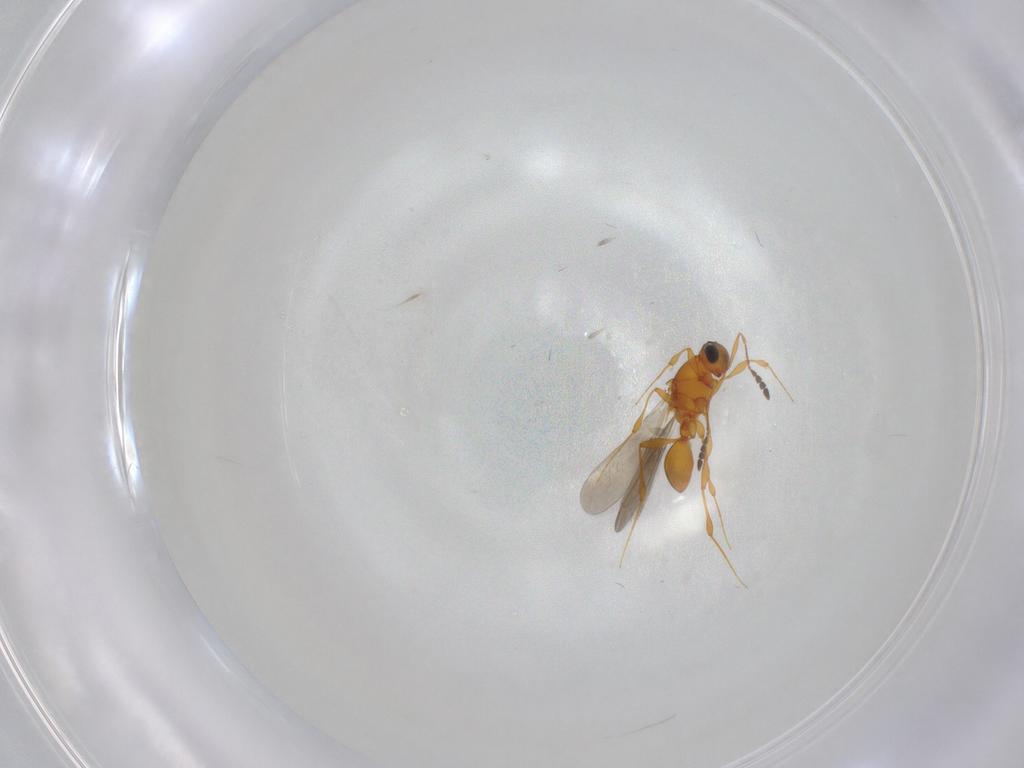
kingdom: Animalia
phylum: Arthropoda
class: Insecta
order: Hymenoptera
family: Platygastridae
